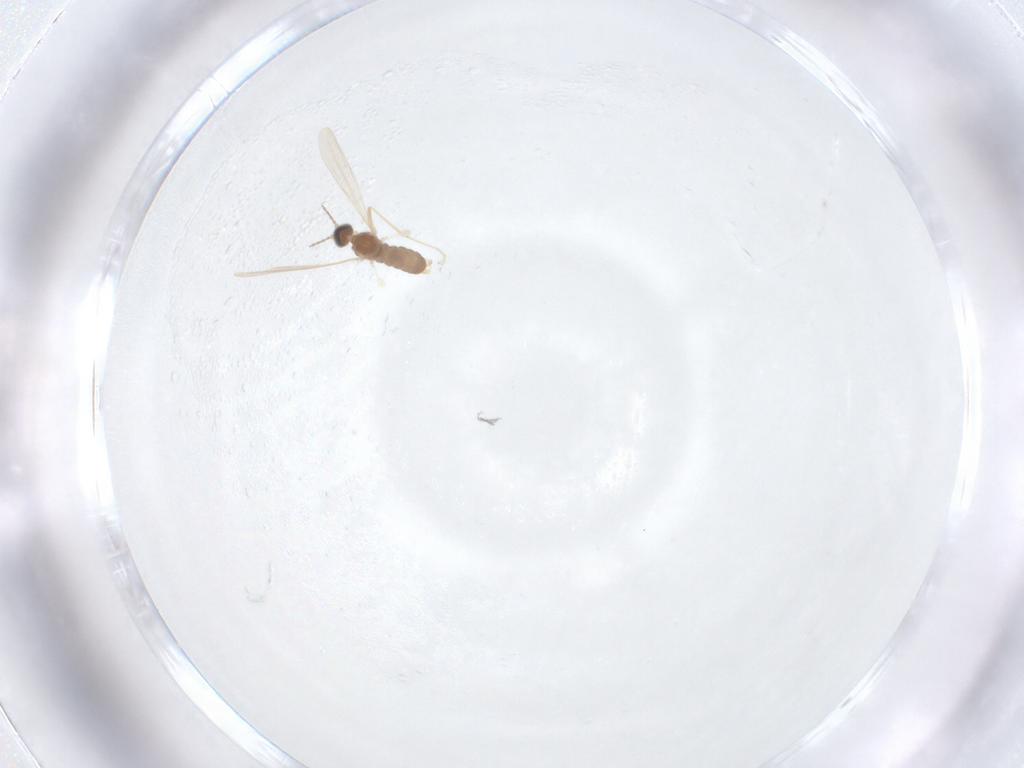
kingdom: Animalia
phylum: Arthropoda
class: Insecta
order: Diptera
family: Cecidomyiidae
